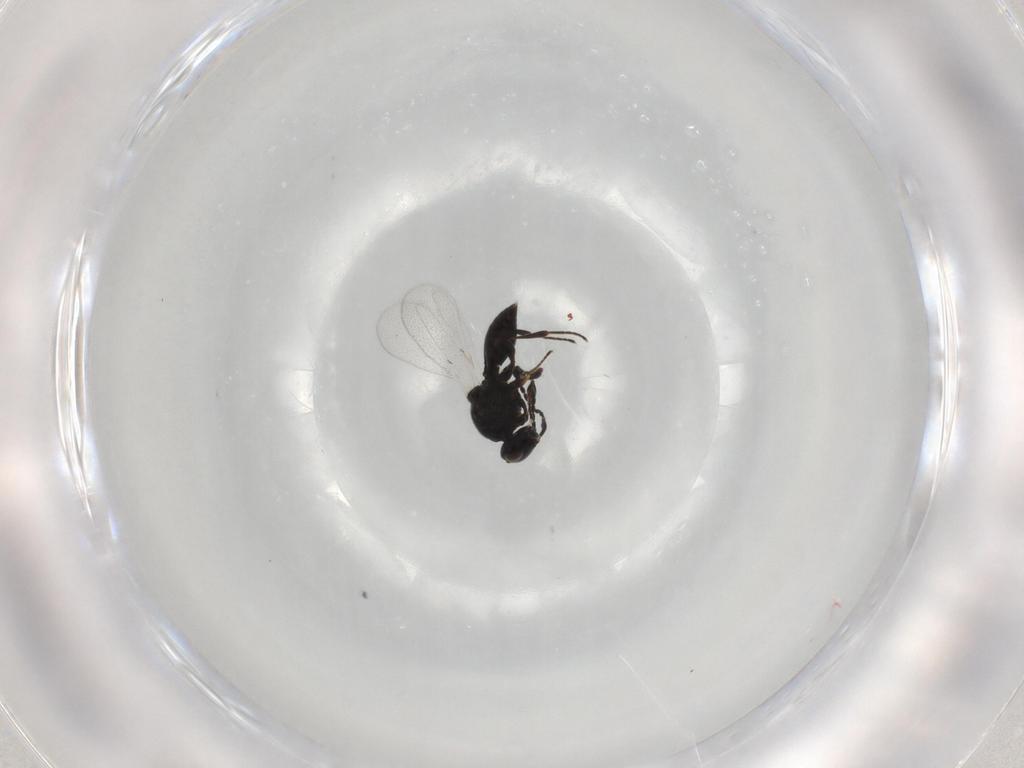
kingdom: Animalia
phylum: Arthropoda
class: Insecta
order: Hymenoptera
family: Platygastridae
